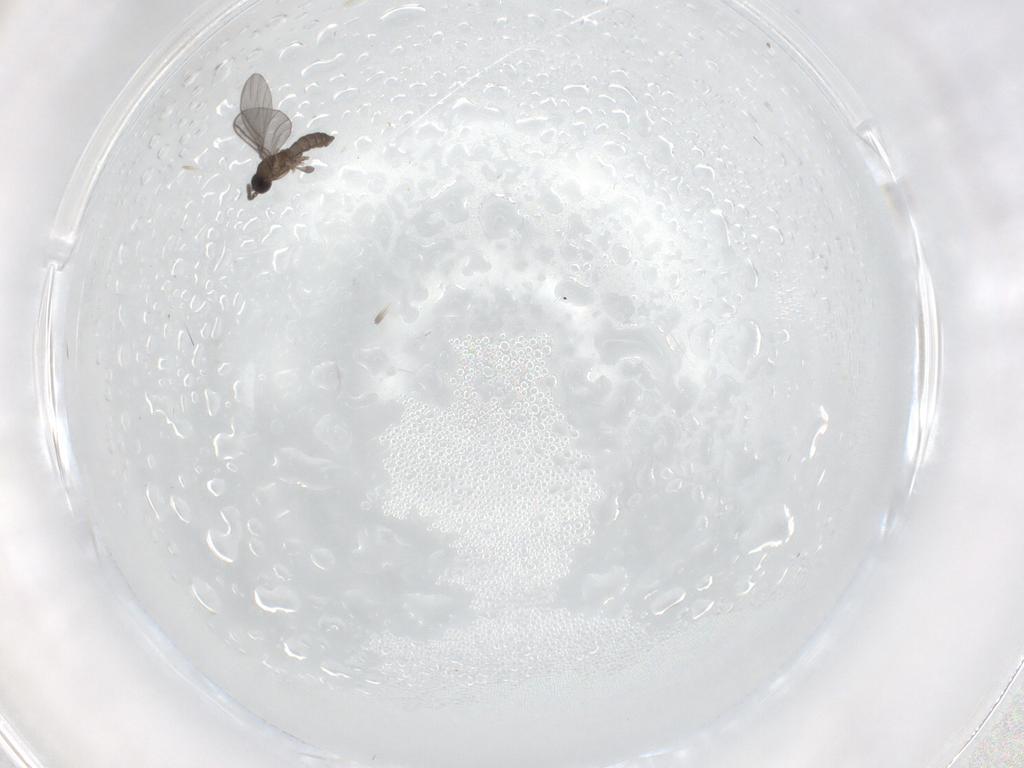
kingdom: Animalia
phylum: Arthropoda
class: Insecta
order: Diptera
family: Sciaridae
